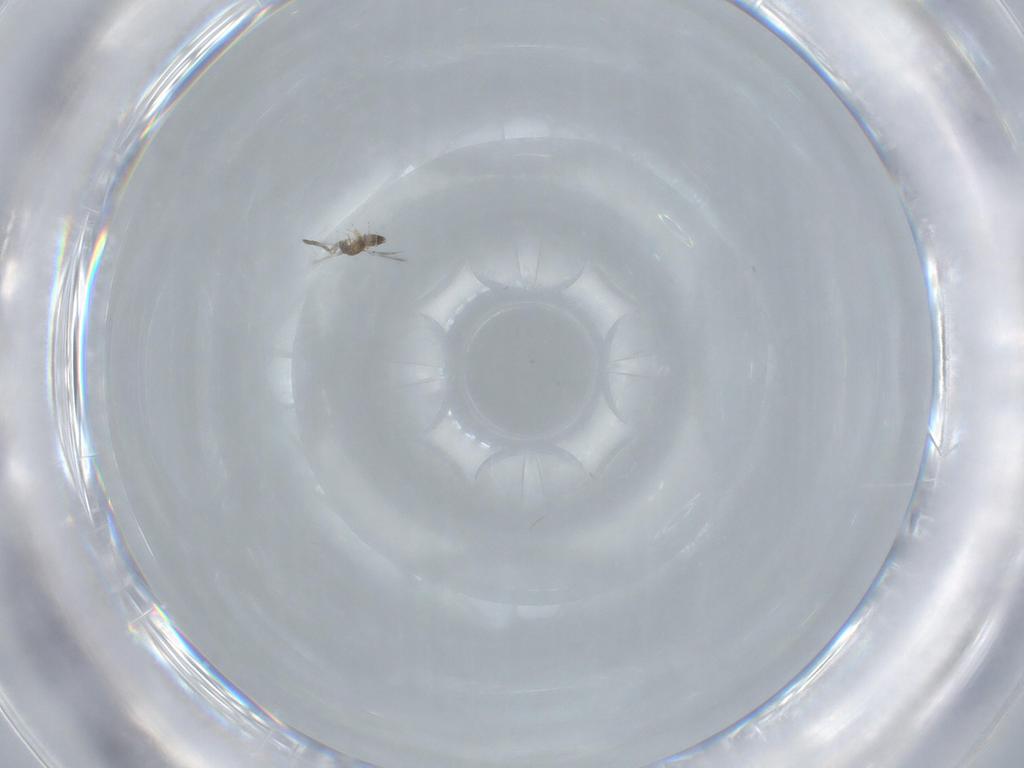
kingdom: Animalia
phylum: Arthropoda
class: Insecta
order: Hymenoptera
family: Mymaridae
